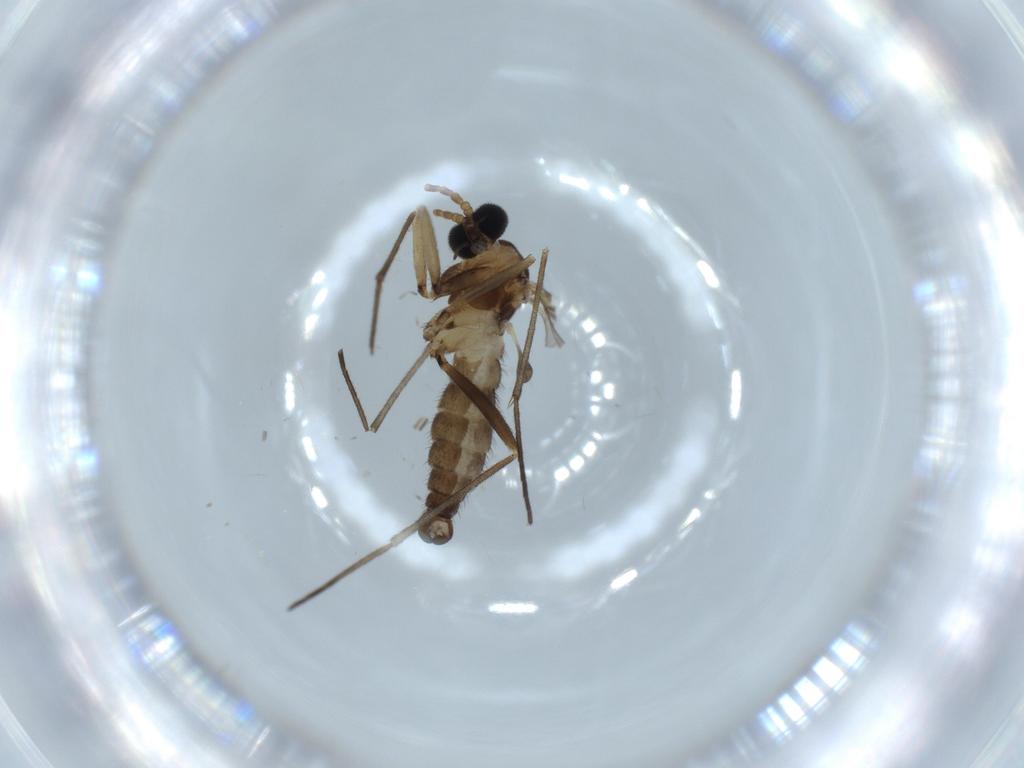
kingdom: Animalia
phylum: Arthropoda
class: Insecta
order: Diptera
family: Sciaridae
